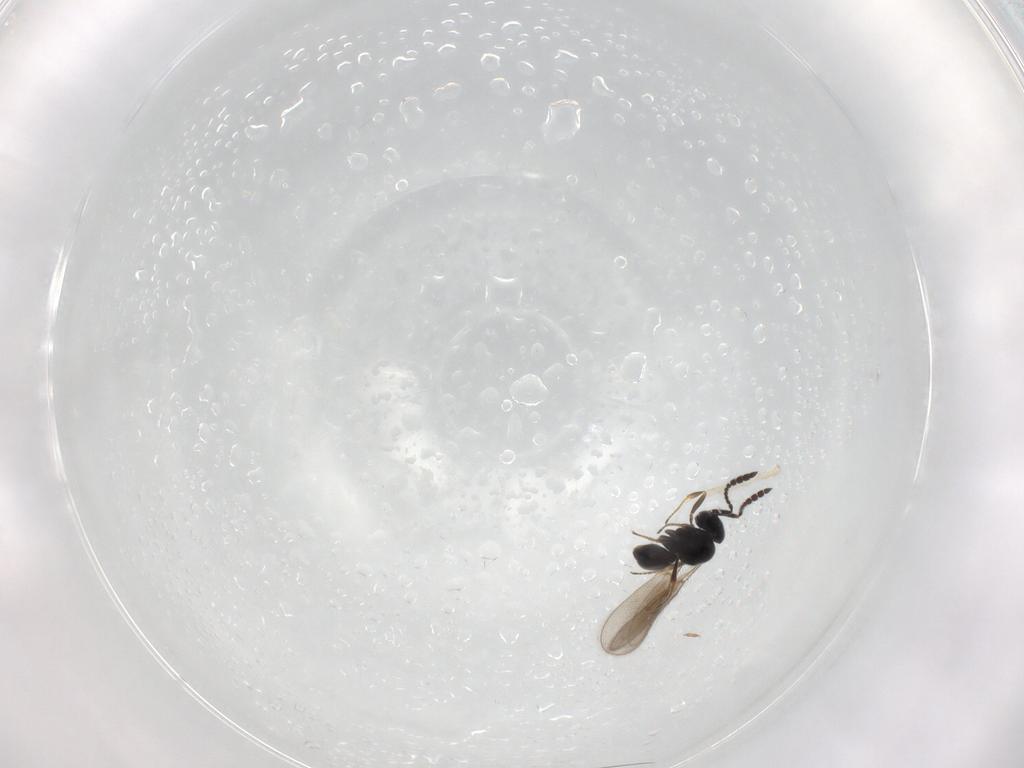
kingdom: Animalia
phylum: Arthropoda
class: Insecta
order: Hymenoptera
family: Scelionidae
